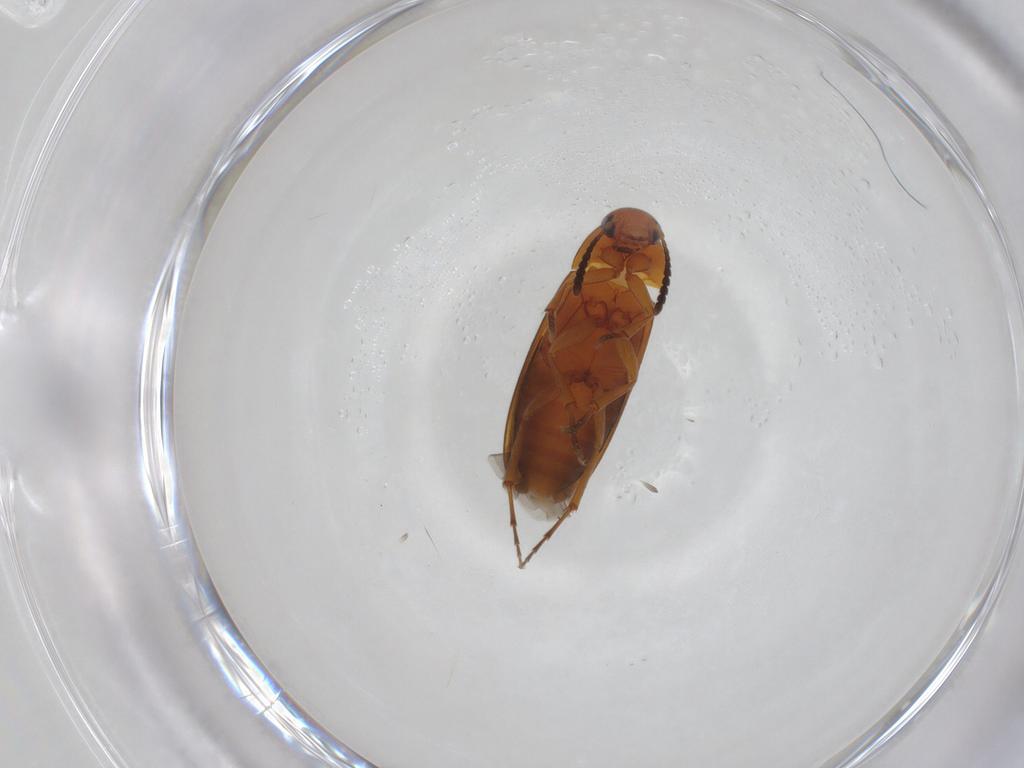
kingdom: Animalia
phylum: Arthropoda
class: Insecta
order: Coleoptera
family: Scraptiidae
